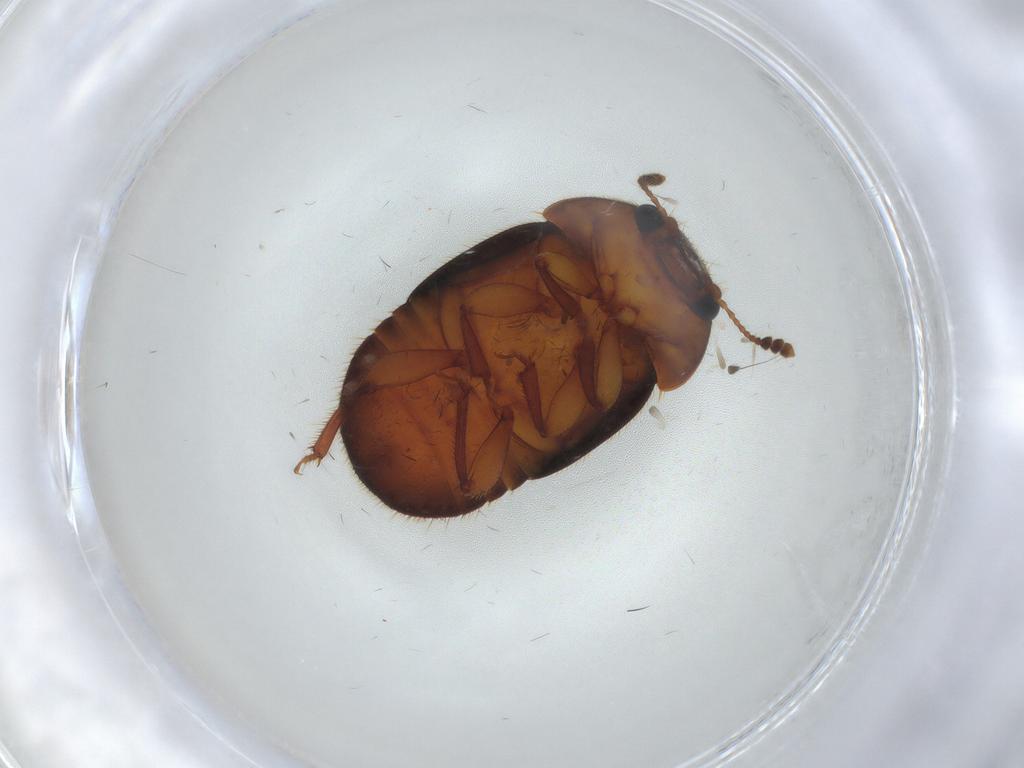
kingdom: Animalia
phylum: Arthropoda
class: Insecta
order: Coleoptera
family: Nitidulidae
